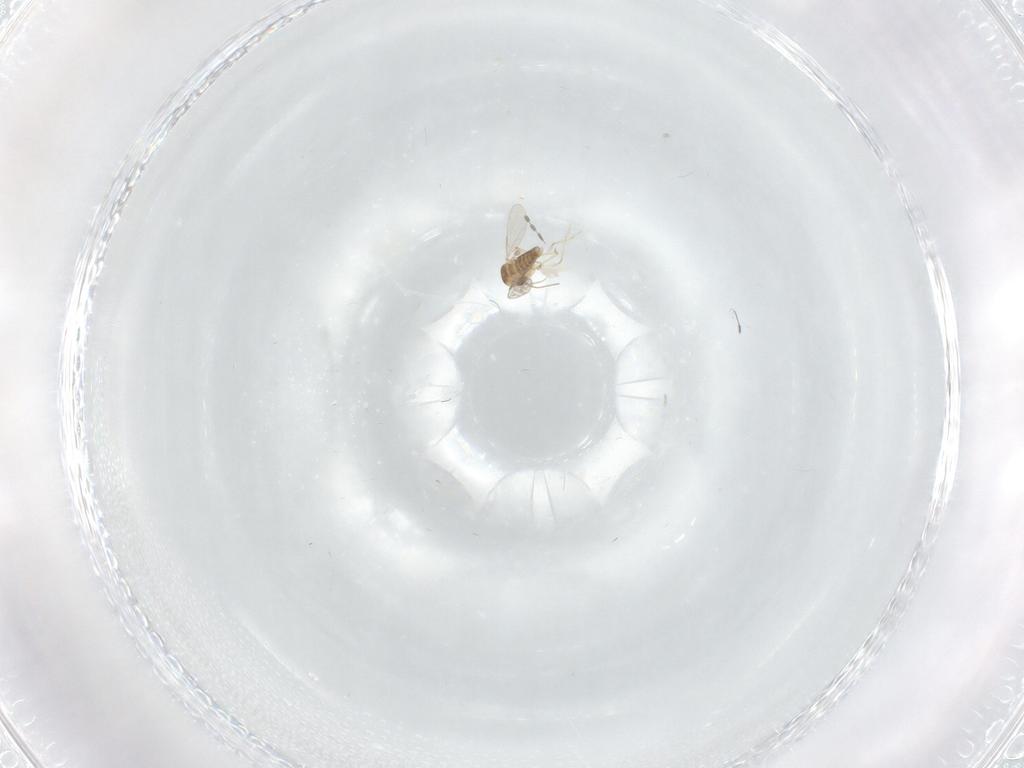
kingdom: Animalia
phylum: Arthropoda
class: Insecta
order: Diptera
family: Ceratopogonidae
